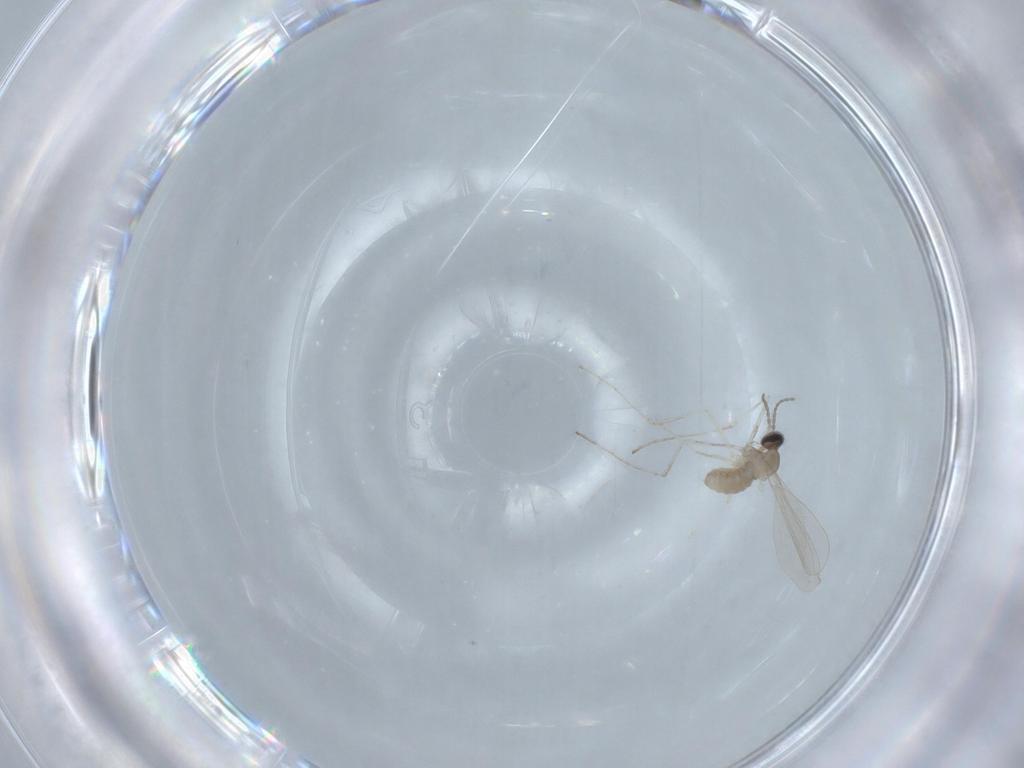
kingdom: Animalia
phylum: Arthropoda
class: Insecta
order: Diptera
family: Cecidomyiidae
